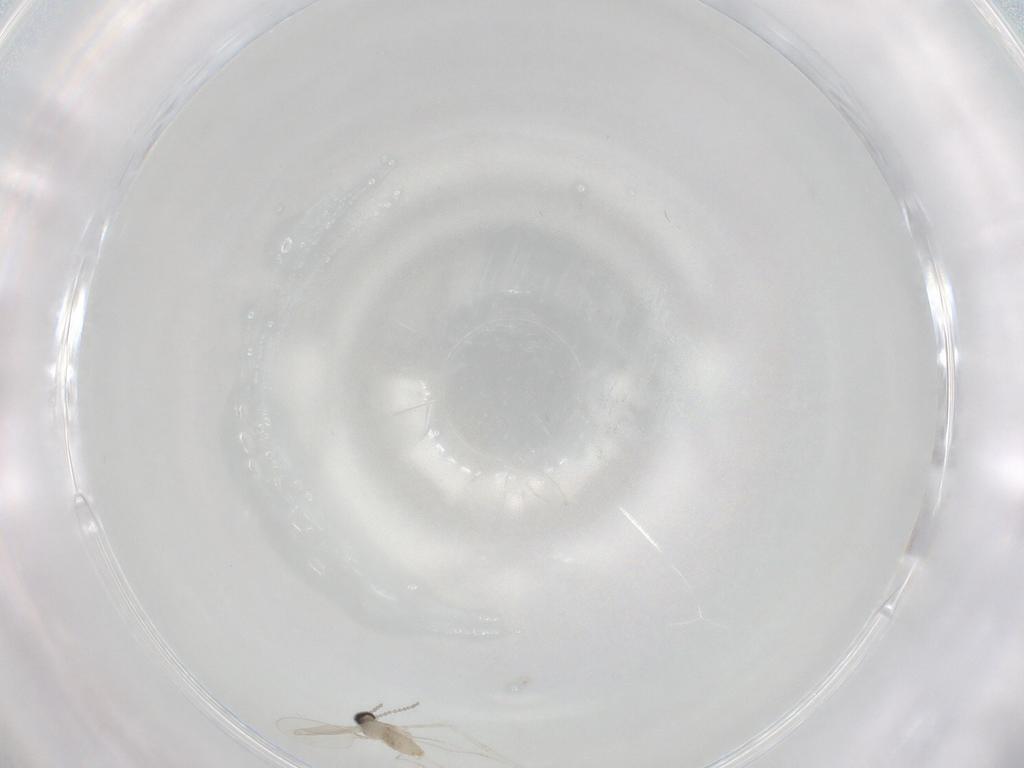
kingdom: Animalia
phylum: Arthropoda
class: Insecta
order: Diptera
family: Cecidomyiidae
